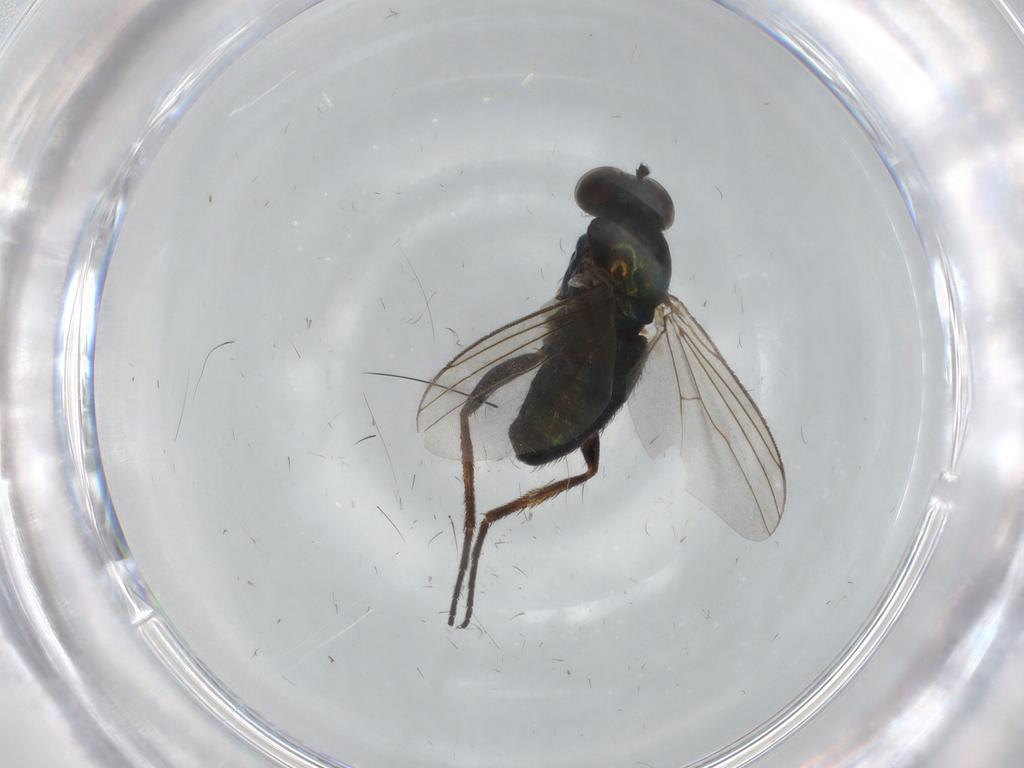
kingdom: Animalia
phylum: Arthropoda
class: Insecta
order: Diptera
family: Dolichopodidae
